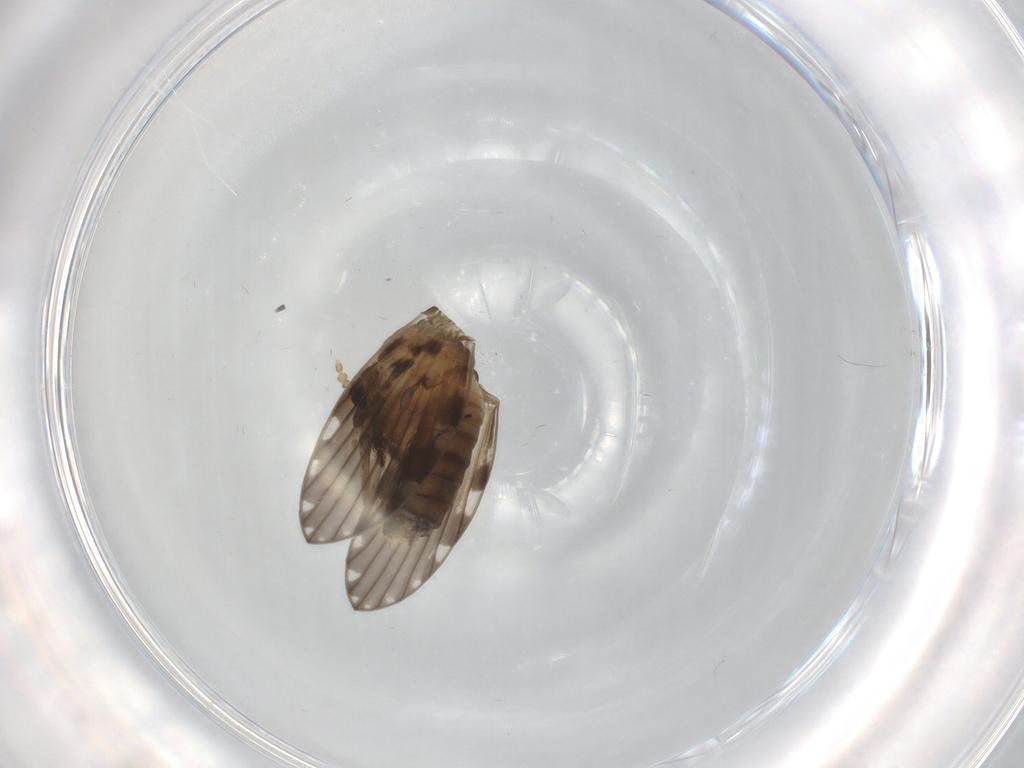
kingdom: Animalia
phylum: Arthropoda
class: Insecta
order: Diptera
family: Psychodidae
